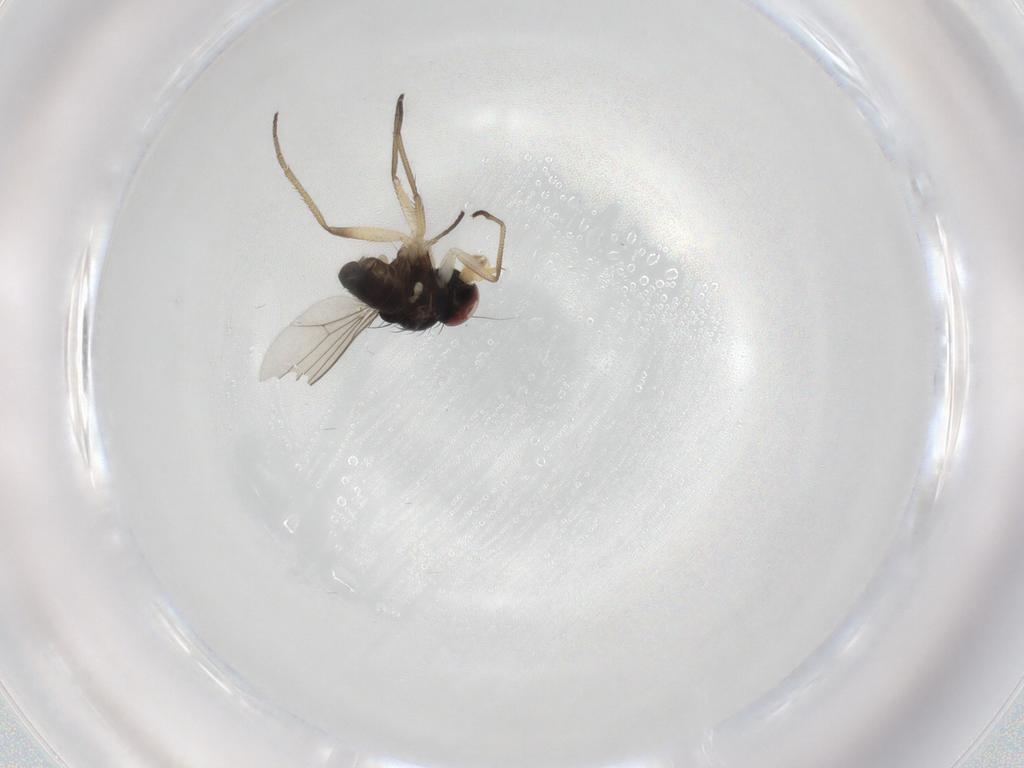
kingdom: Animalia
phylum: Arthropoda
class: Insecta
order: Diptera
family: Dolichopodidae
